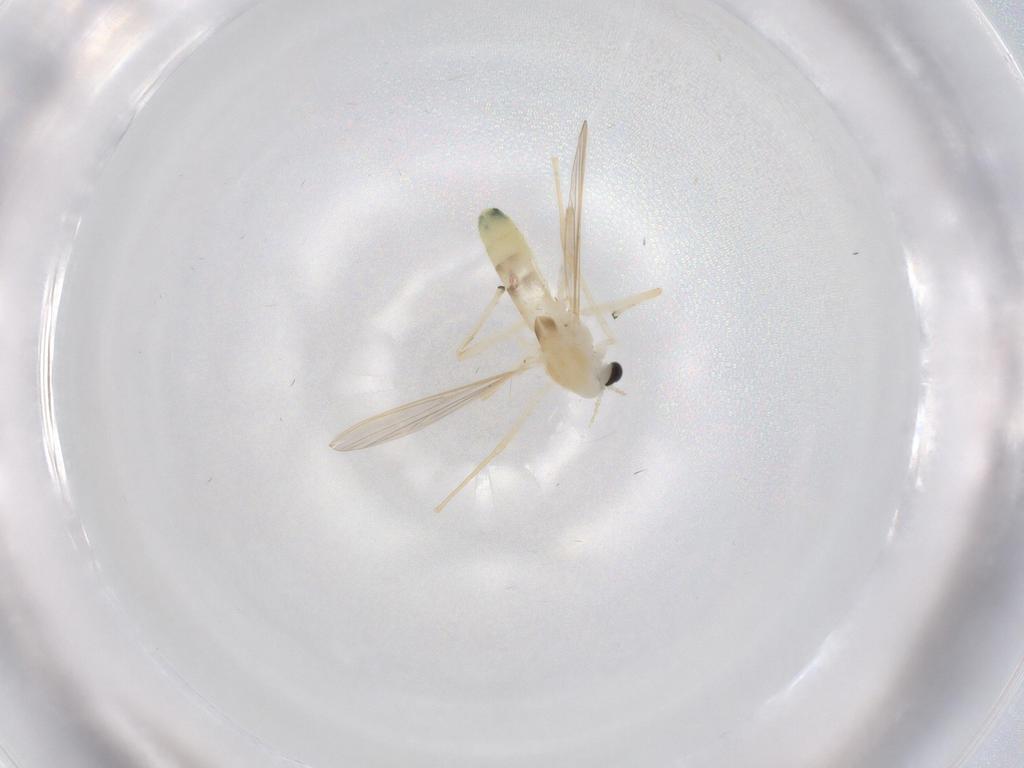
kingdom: Animalia
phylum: Arthropoda
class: Insecta
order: Diptera
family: Chironomidae
